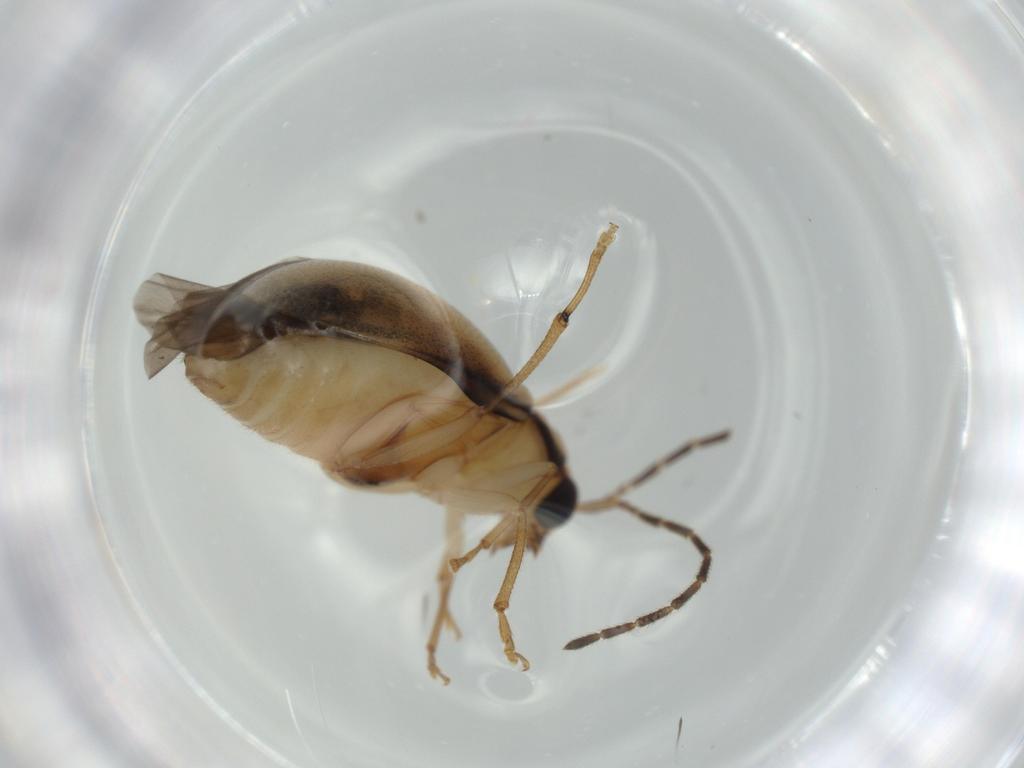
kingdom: Animalia
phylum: Arthropoda
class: Insecta
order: Coleoptera
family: Chrysomelidae
